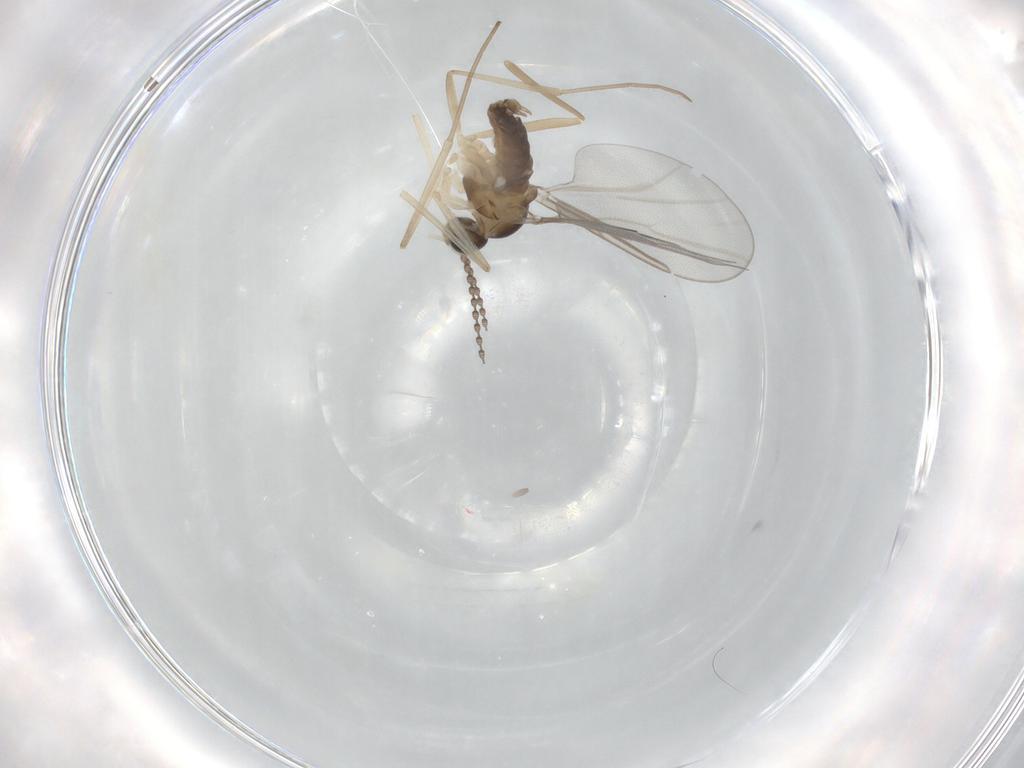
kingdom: Animalia
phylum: Arthropoda
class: Insecta
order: Diptera
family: Cecidomyiidae
